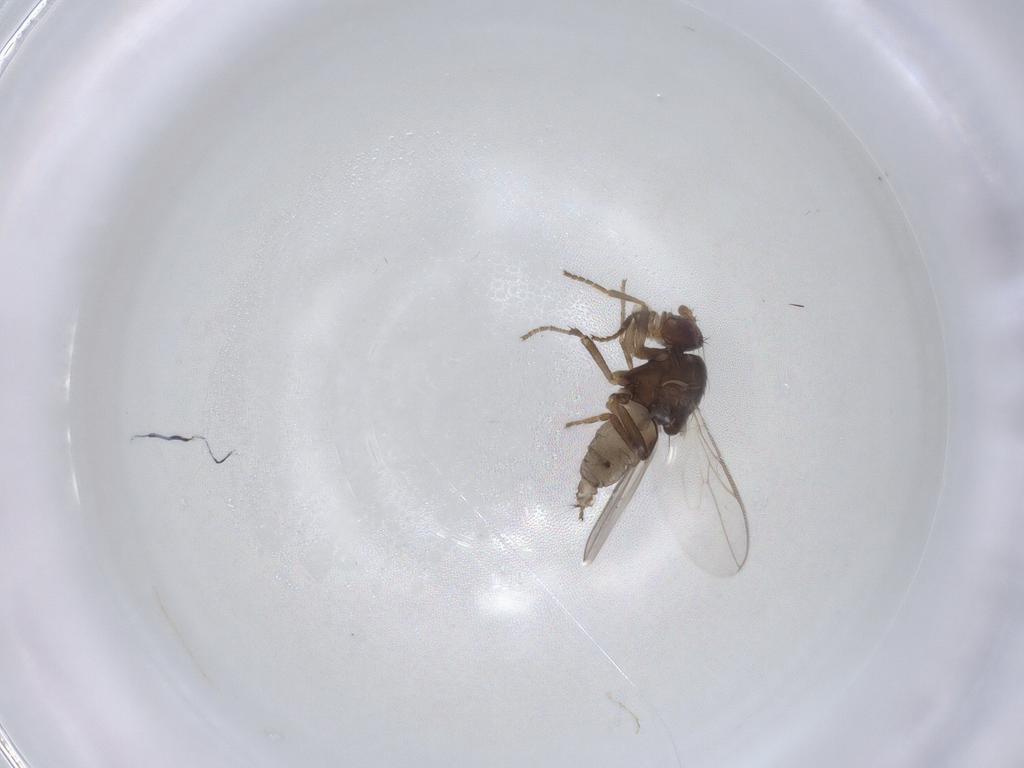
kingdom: Animalia
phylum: Arthropoda
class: Insecta
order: Diptera
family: Sphaeroceridae
